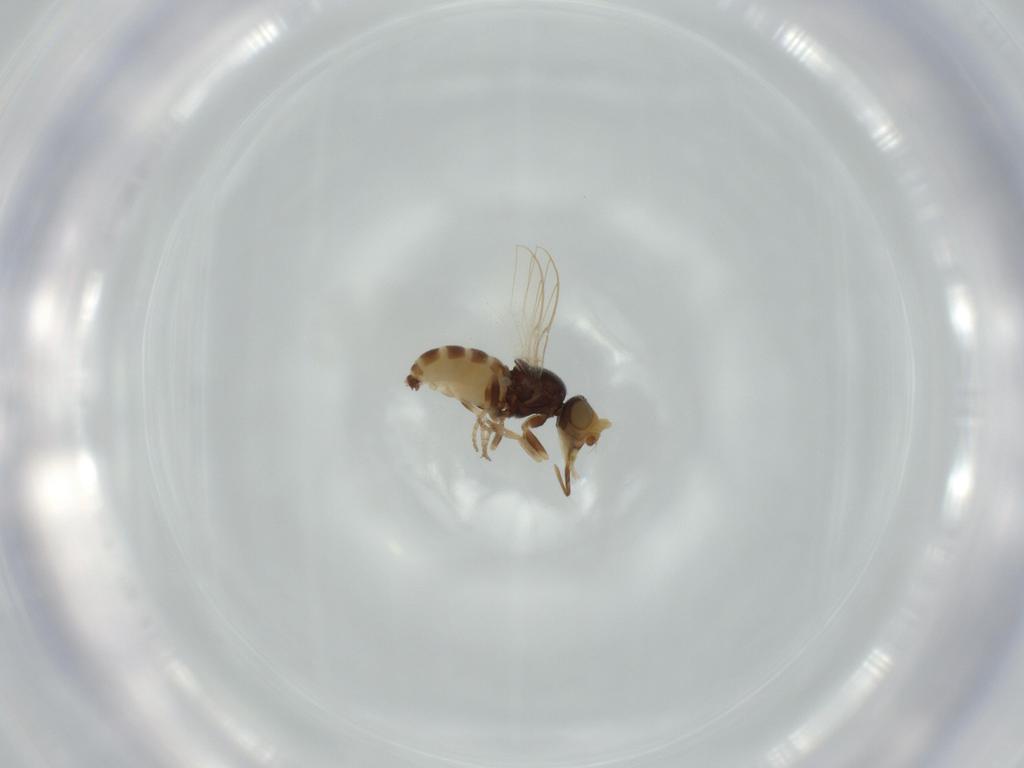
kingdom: Animalia
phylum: Arthropoda
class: Insecta
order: Diptera
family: Chloropidae
